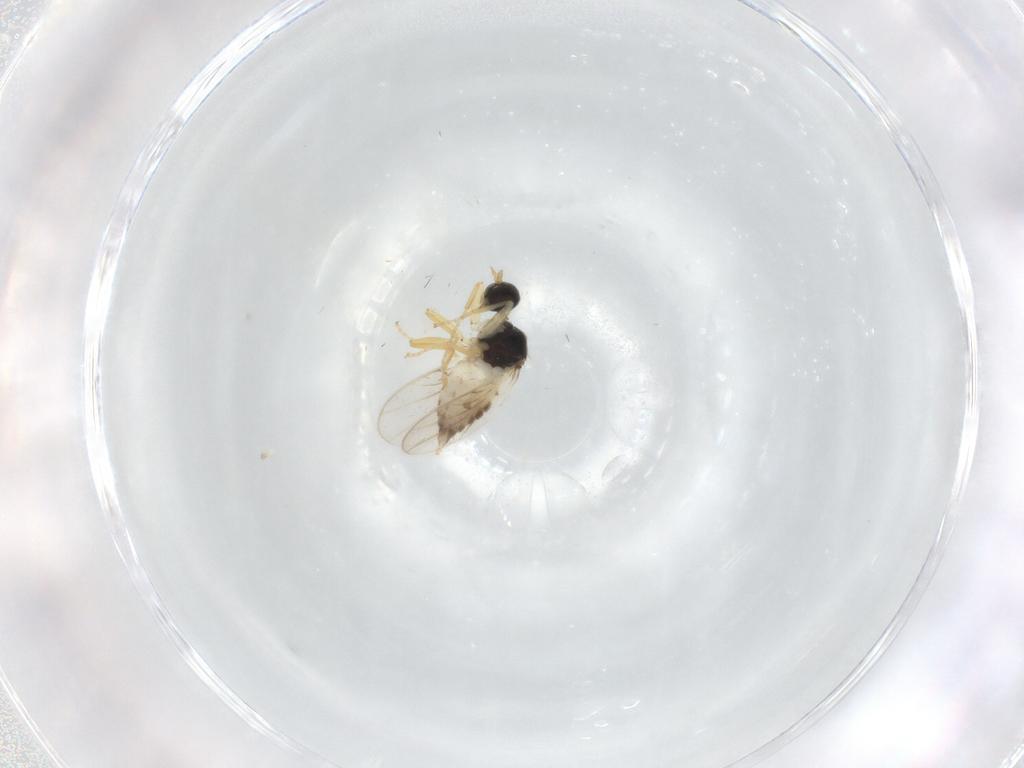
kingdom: Animalia
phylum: Arthropoda
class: Insecta
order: Diptera
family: Hybotidae
